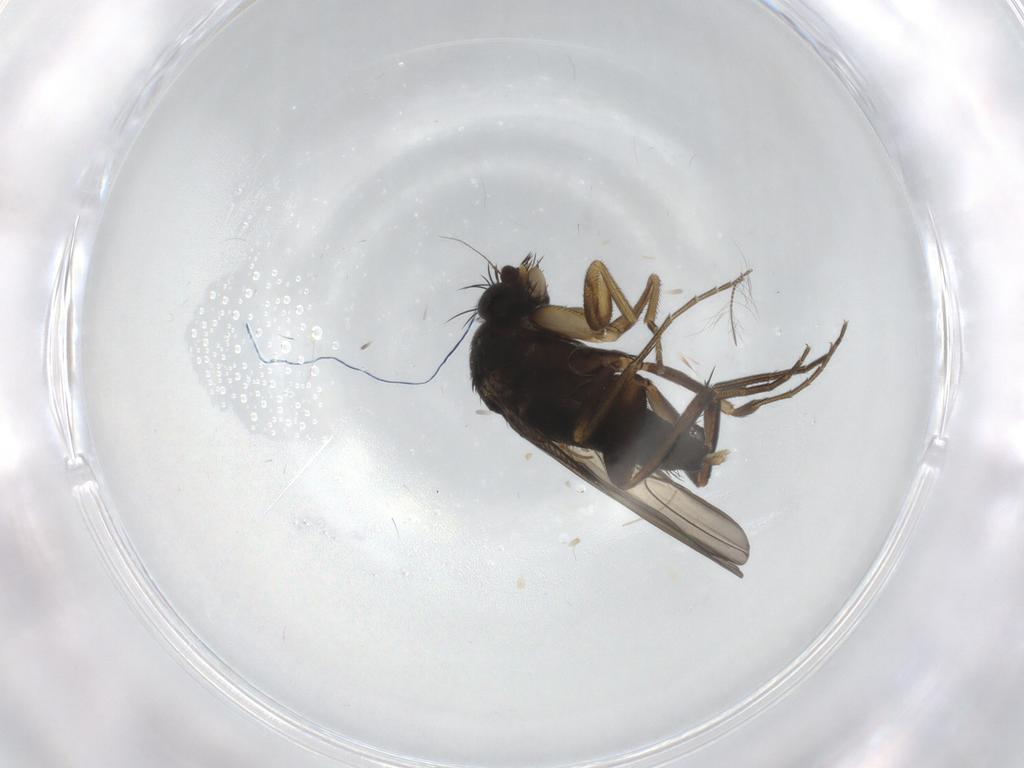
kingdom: Animalia
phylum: Arthropoda
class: Insecta
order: Diptera
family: Phoridae
